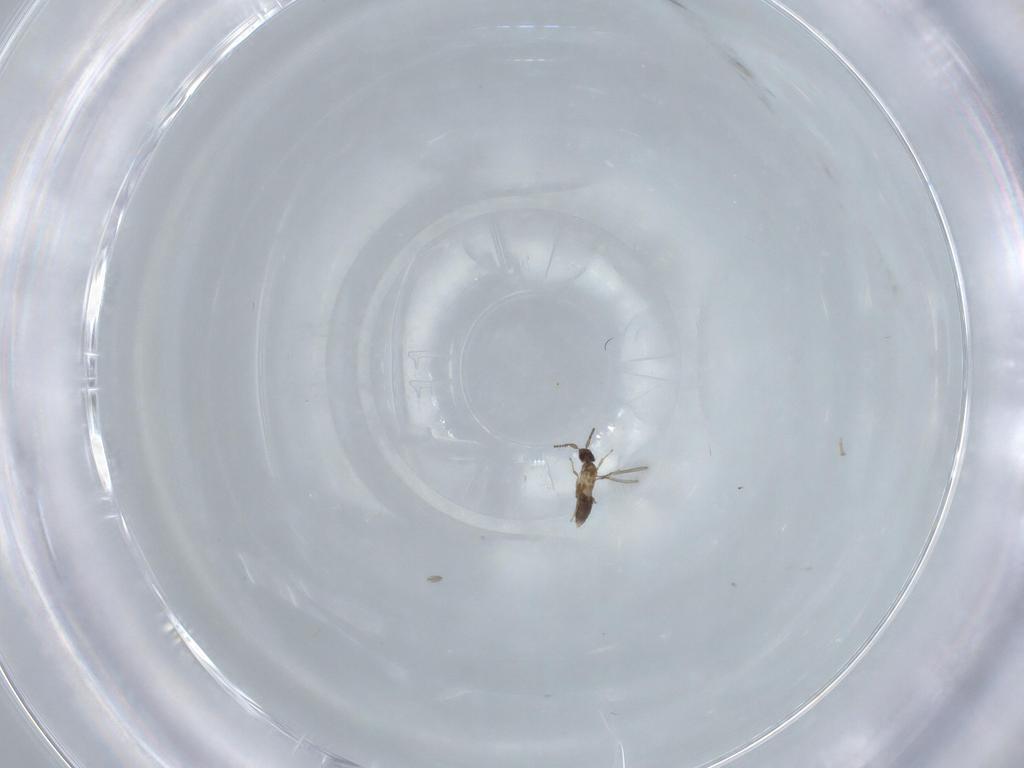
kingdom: Animalia
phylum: Arthropoda
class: Insecta
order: Hymenoptera
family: Mymaridae
